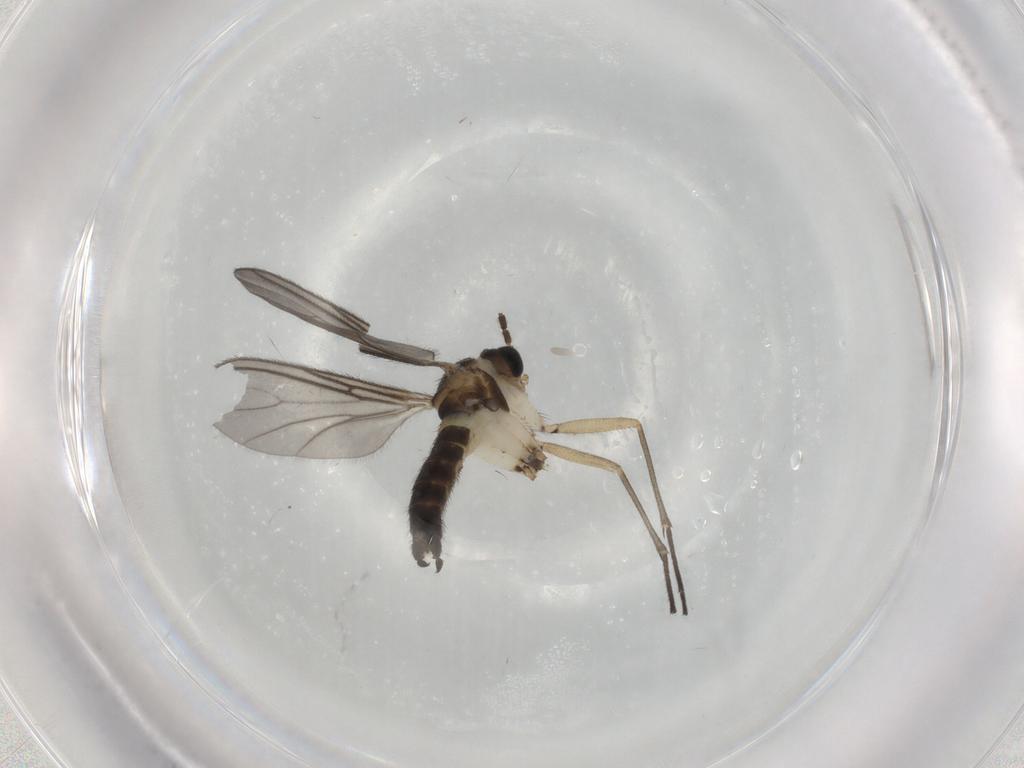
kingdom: Animalia
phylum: Arthropoda
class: Insecta
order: Diptera
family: Sciaridae
